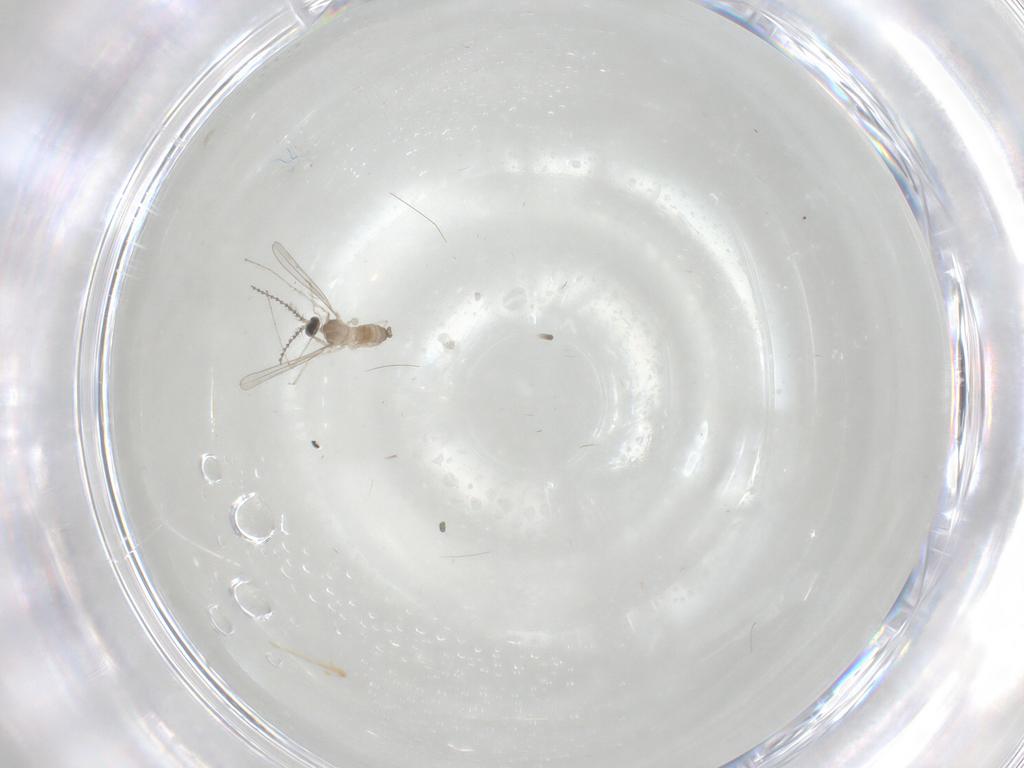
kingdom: Animalia
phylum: Arthropoda
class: Insecta
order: Diptera
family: Cecidomyiidae
